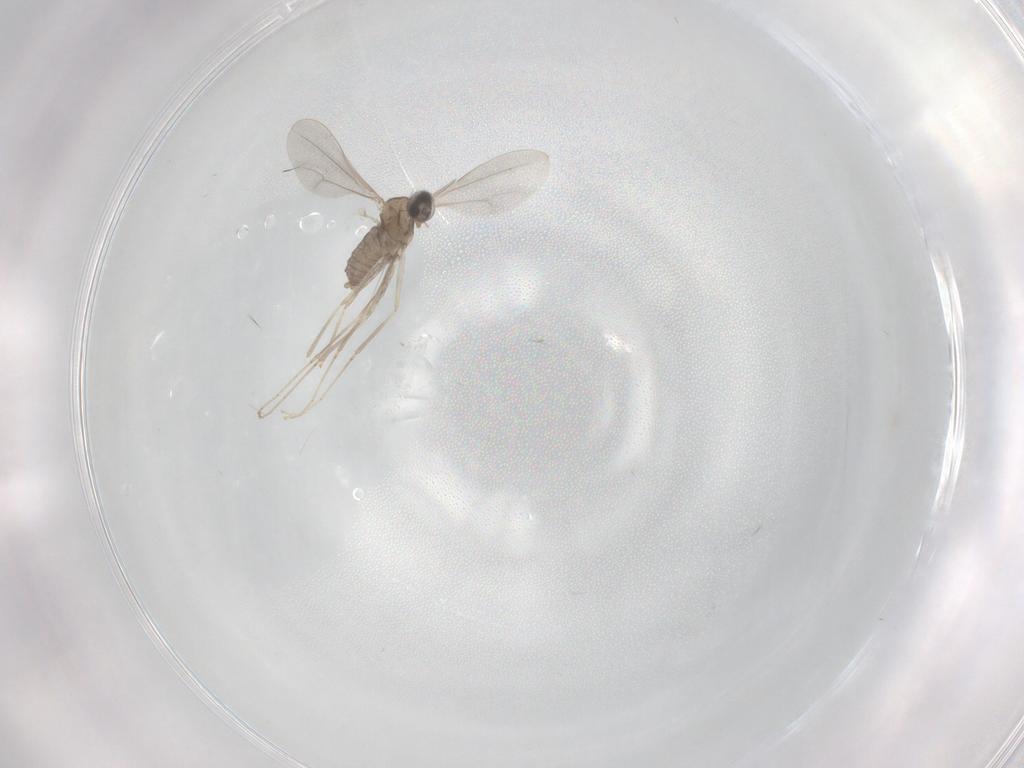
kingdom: Animalia
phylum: Arthropoda
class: Insecta
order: Diptera
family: Cecidomyiidae
